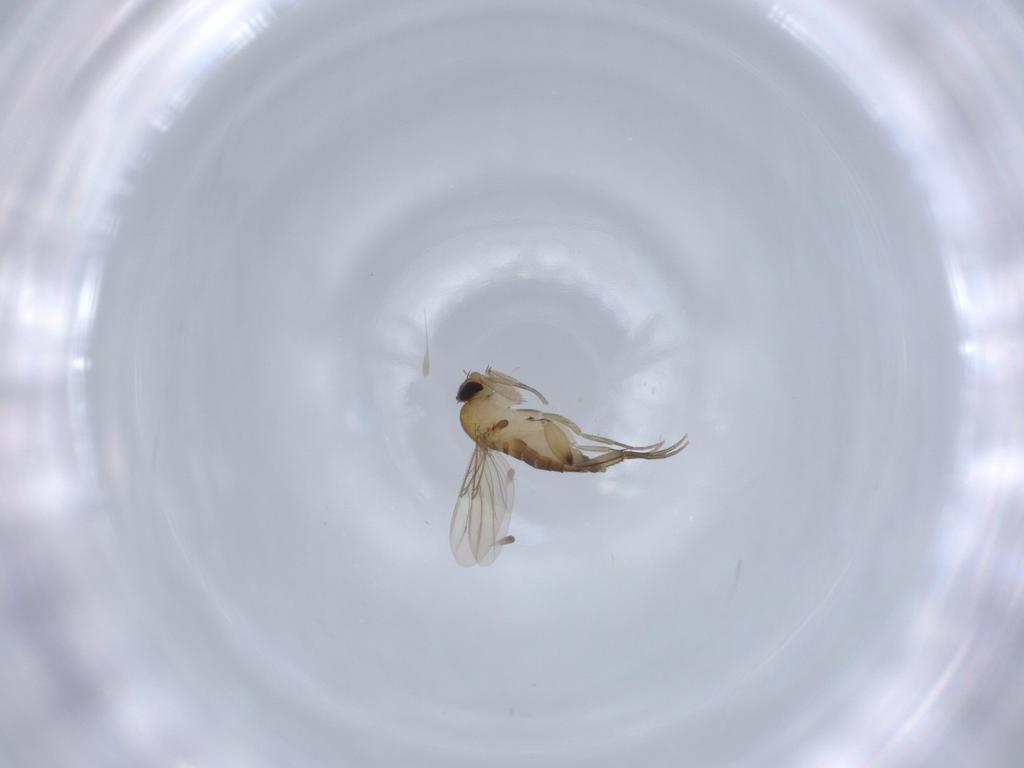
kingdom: Animalia
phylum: Arthropoda
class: Insecta
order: Diptera
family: Phoridae
